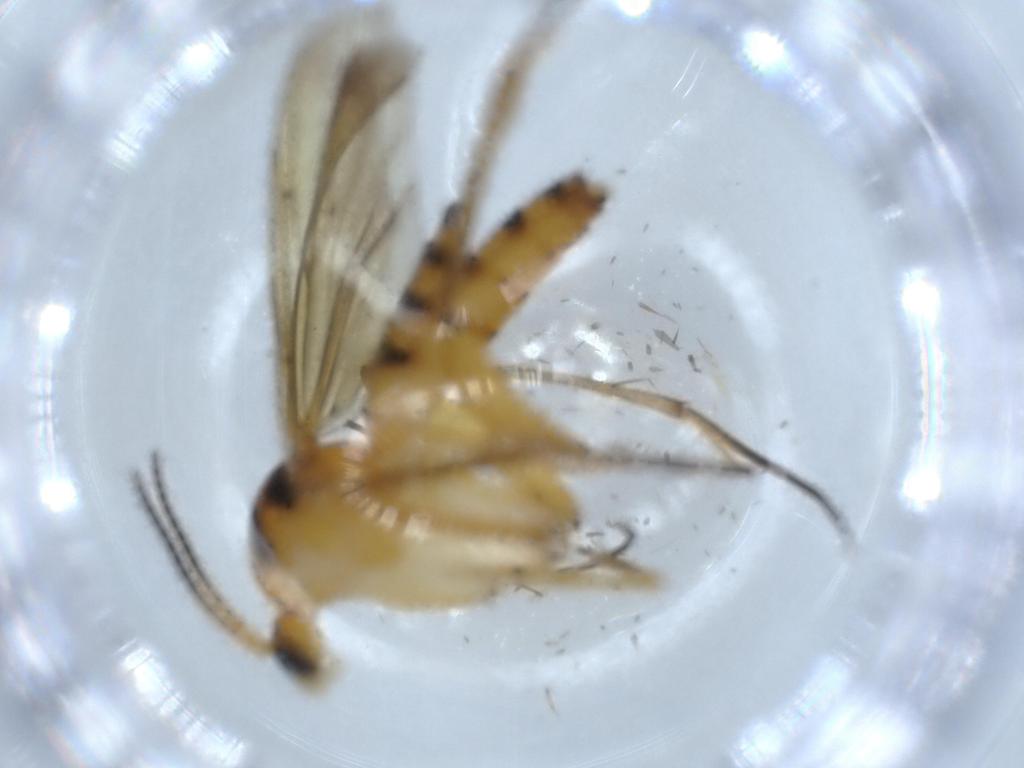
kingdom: Animalia
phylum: Arthropoda
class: Insecta
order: Diptera
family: Mycetophilidae
